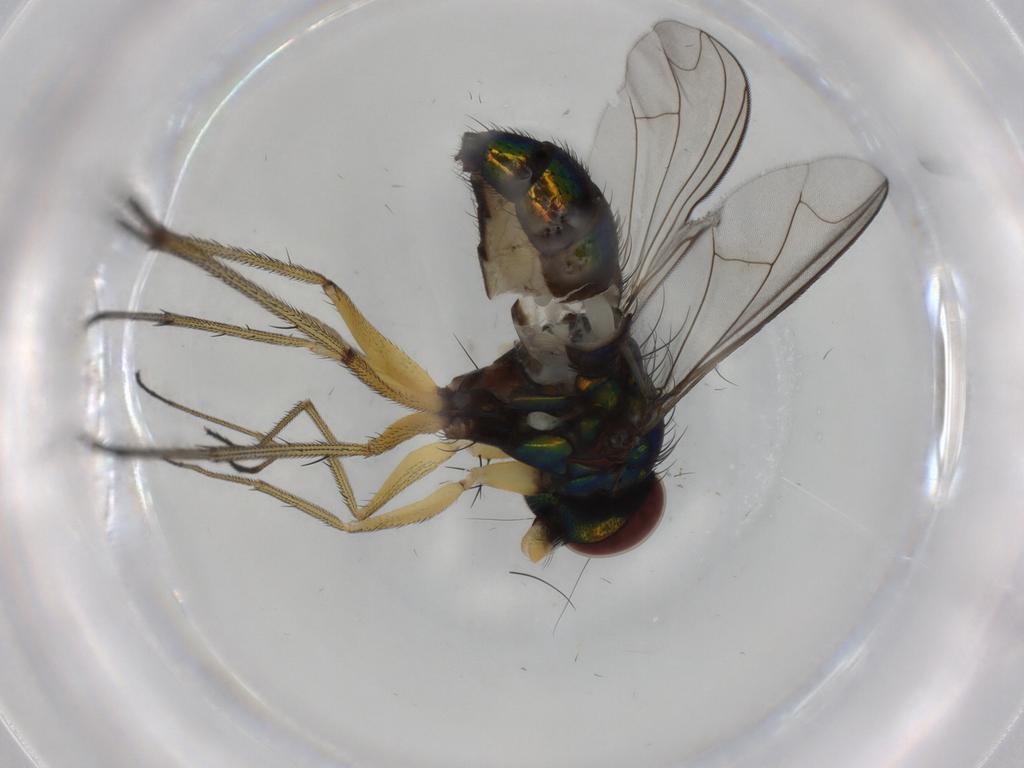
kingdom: Animalia
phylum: Arthropoda
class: Insecta
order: Diptera
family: Dolichopodidae
